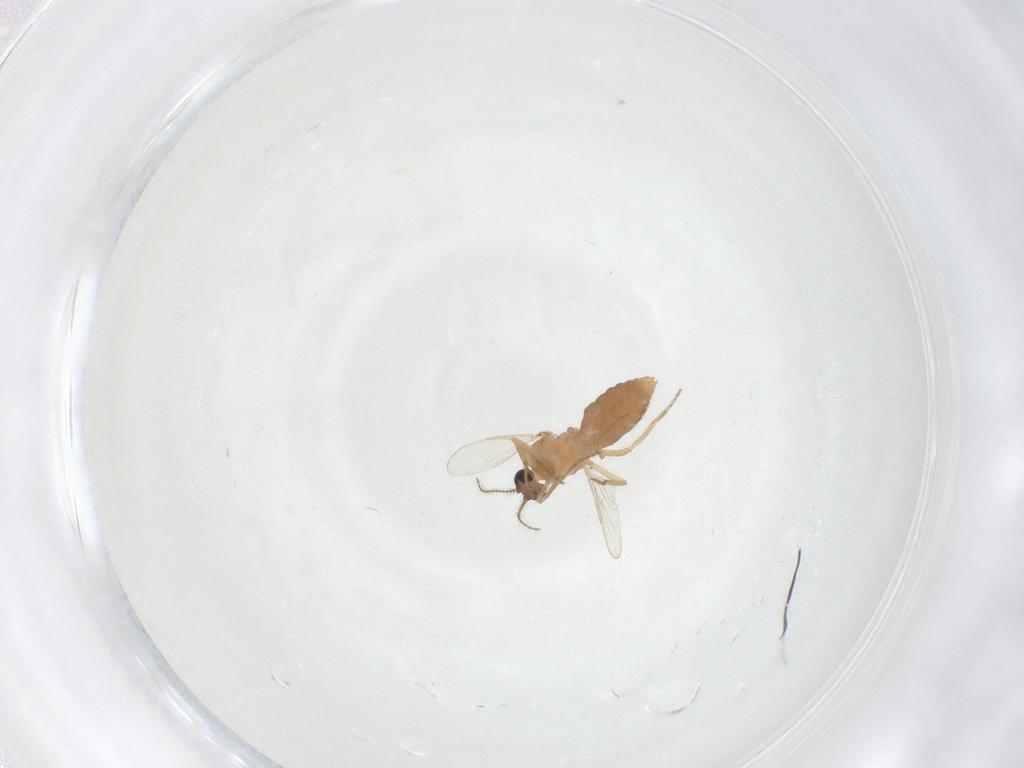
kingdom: Animalia
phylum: Arthropoda
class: Insecta
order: Diptera
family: Ceratopogonidae
